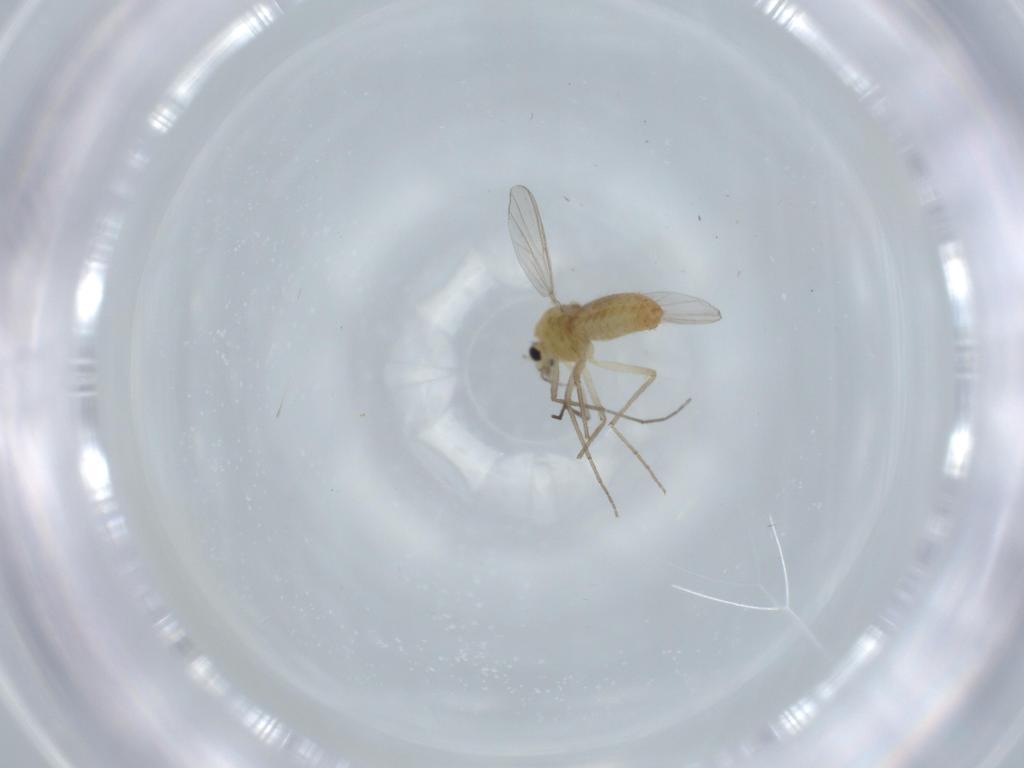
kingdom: Animalia
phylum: Arthropoda
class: Insecta
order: Diptera
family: Chironomidae
